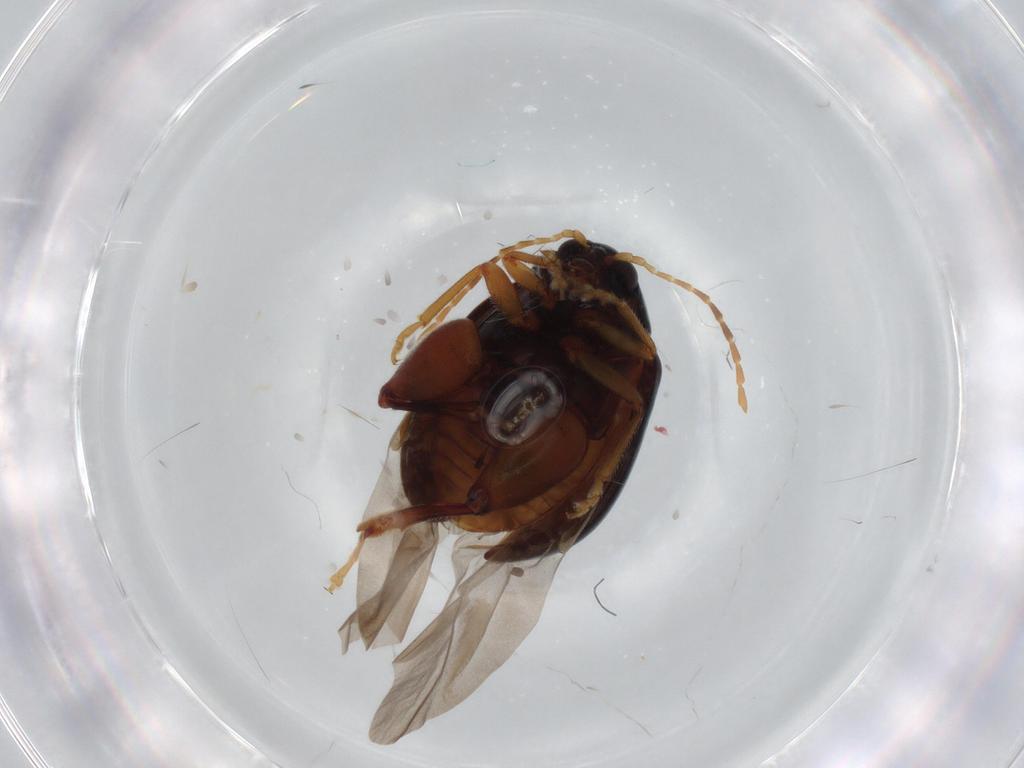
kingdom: Animalia
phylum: Arthropoda
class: Insecta
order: Coleoptera
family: Chrysomelidae
